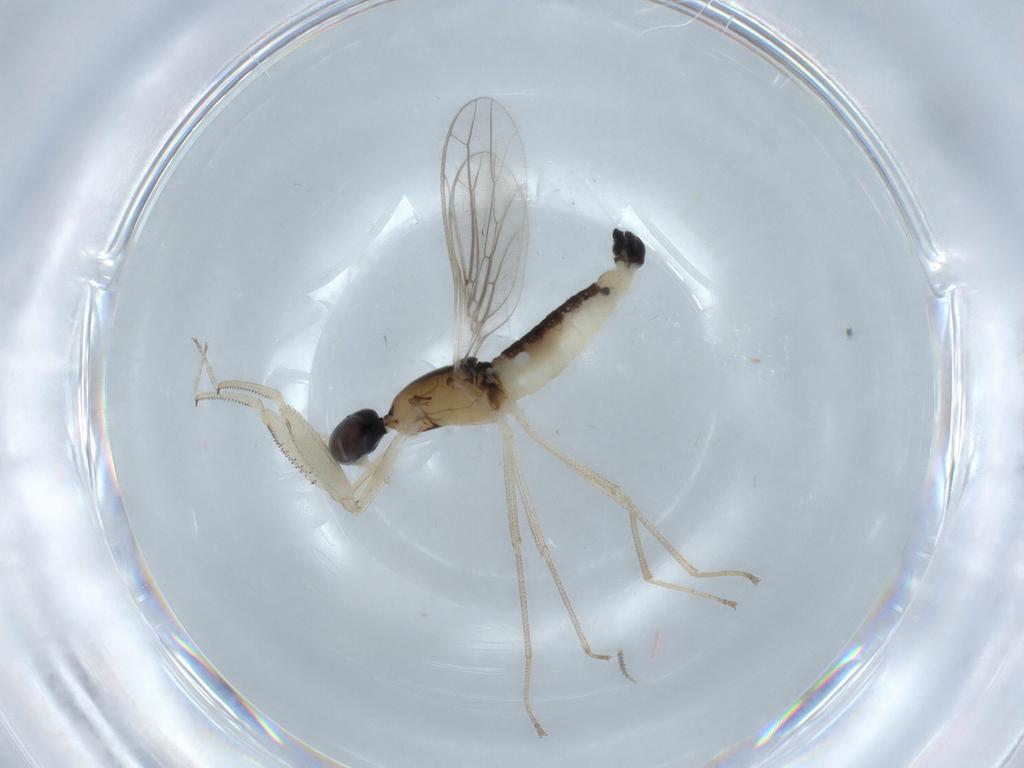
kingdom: Animalia
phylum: Arthropoda
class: Insecta
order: Diptera
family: Empididae
